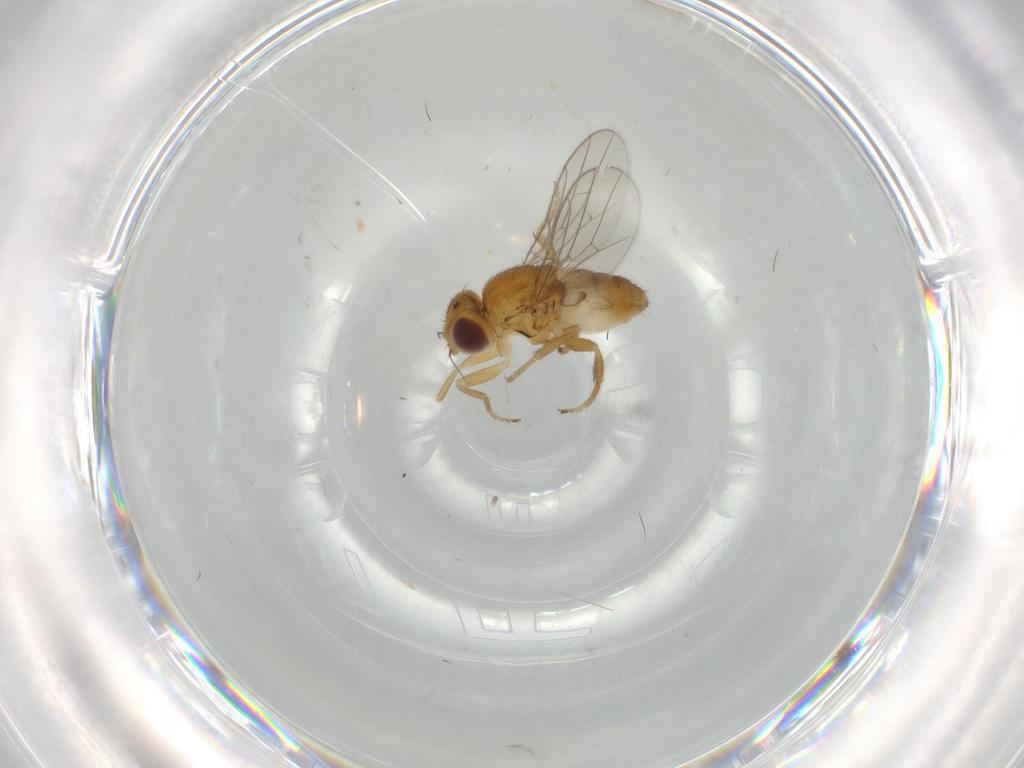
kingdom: Animalia
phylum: Arthropoda
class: Insecta
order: Diptera
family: Chloropidae
